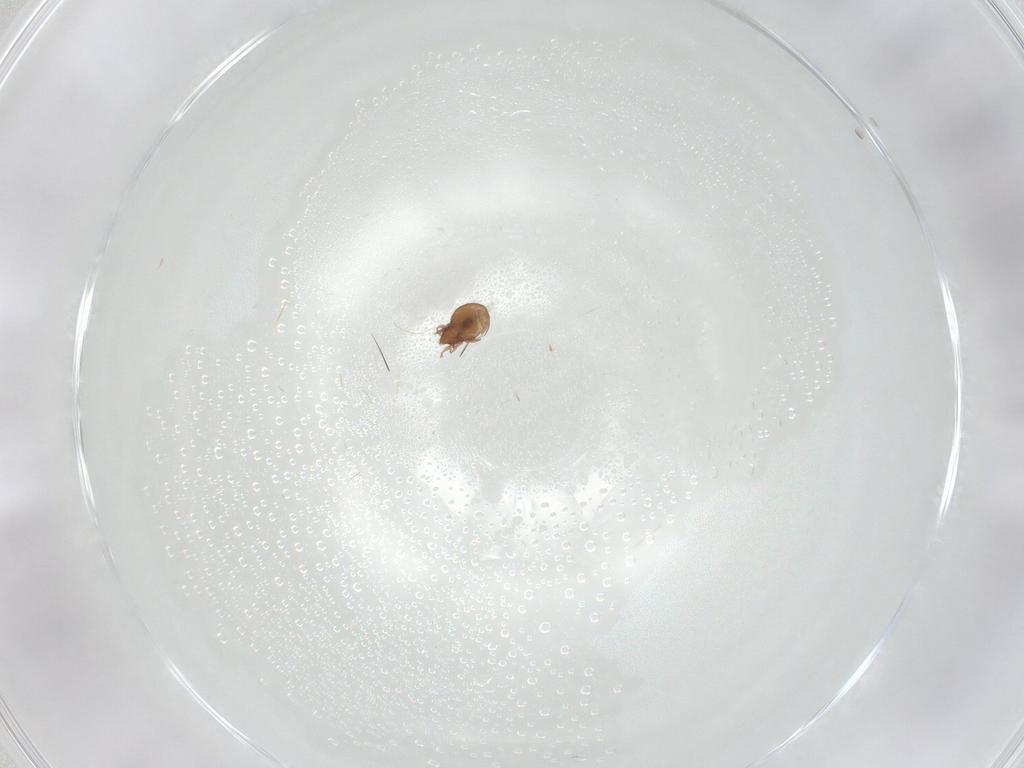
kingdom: Animalia
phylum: Arthropoda
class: Arachnida
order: Sarcoptiformes
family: Oribatulidae
